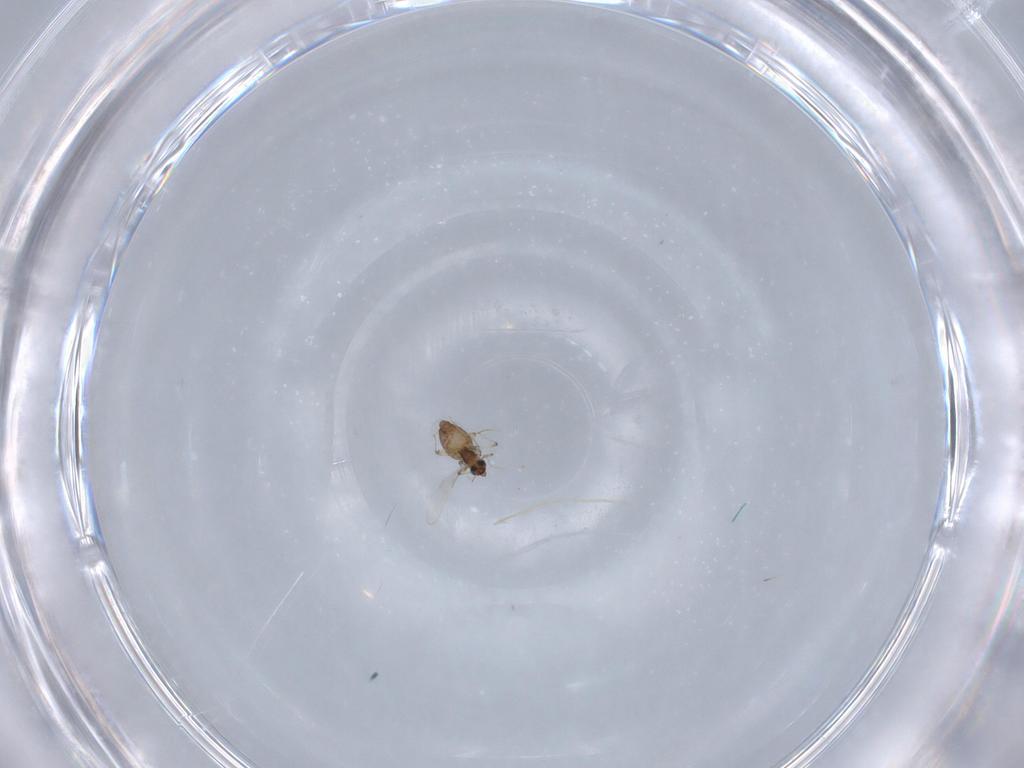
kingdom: Animalia
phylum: Arthropoda
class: Insecta
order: Diptera
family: Chironomidae
